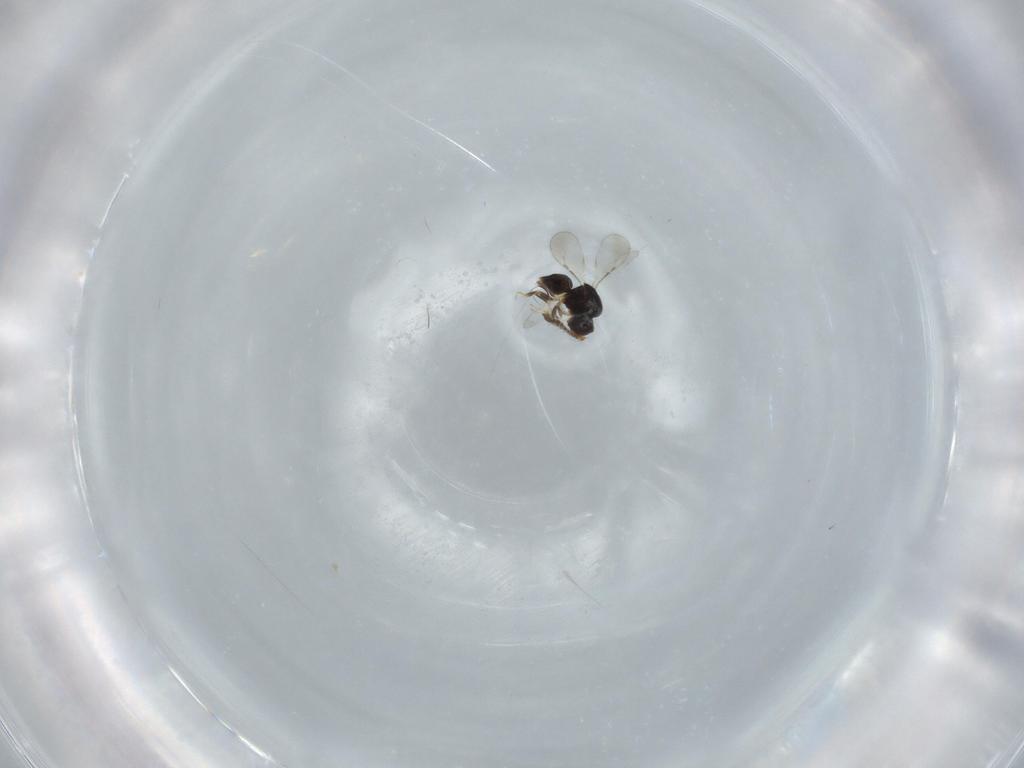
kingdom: Animalia
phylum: Arthropoda
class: Insecta
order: Hymenoptera
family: Ceraphronidae
